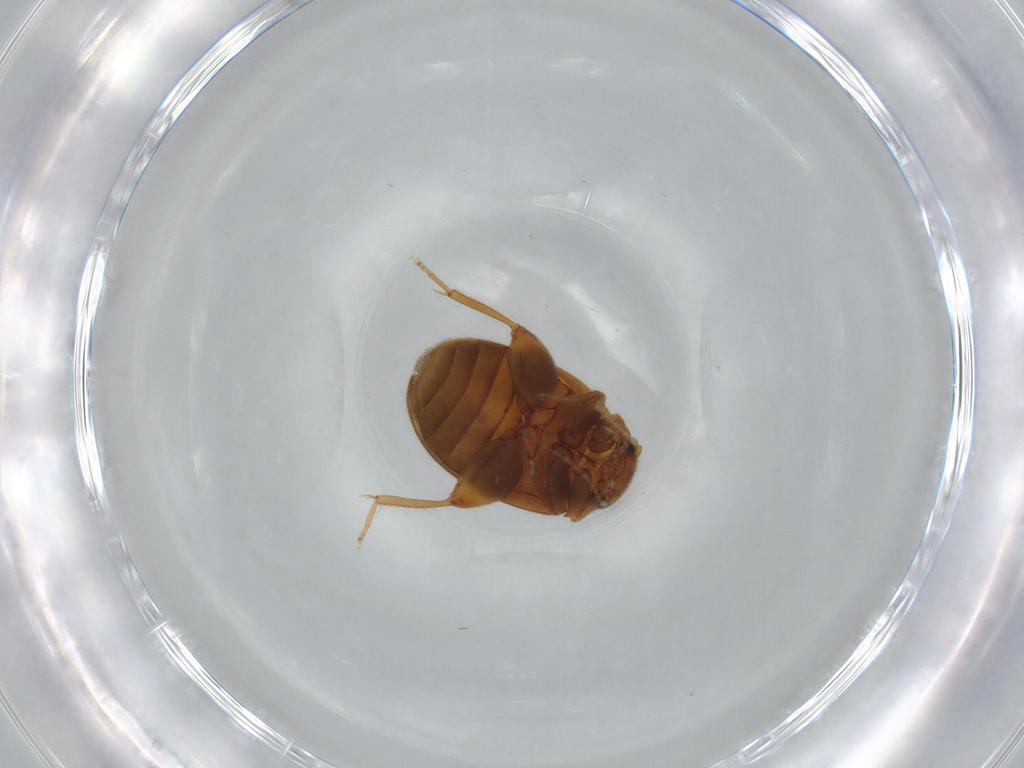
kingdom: Animalia
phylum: Arthropoda
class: Insecta
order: Coleoptera
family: Scirtidae
